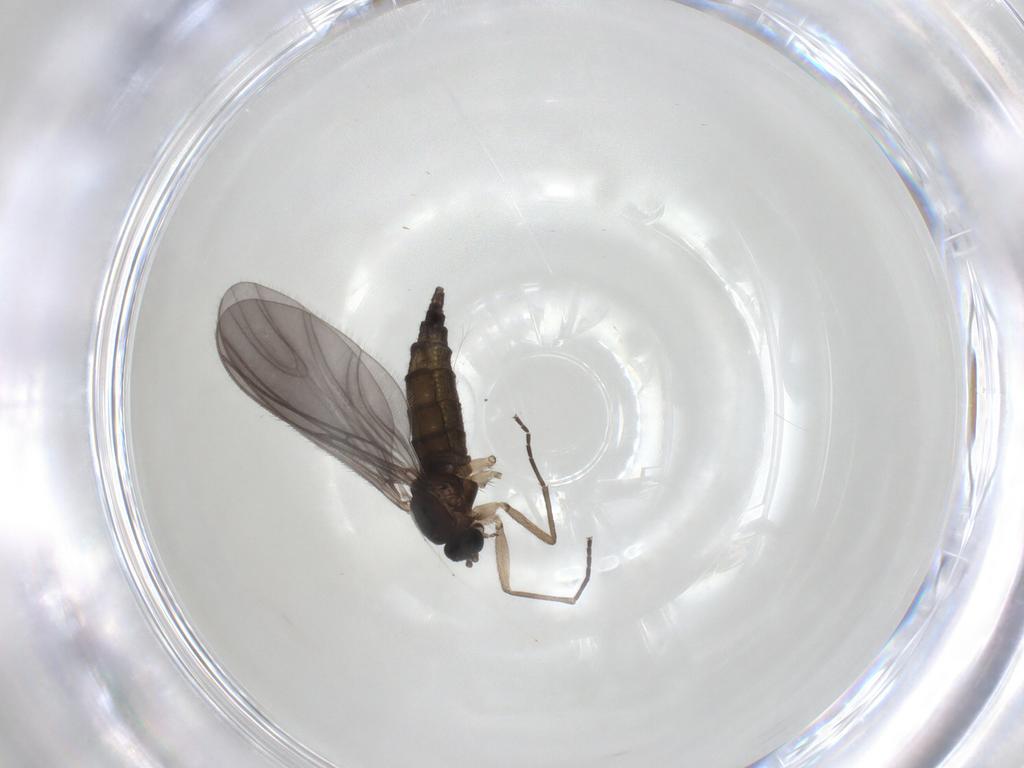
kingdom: Animalia
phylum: Arthropoda
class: Insecta
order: Diptera
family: Sciaridae
